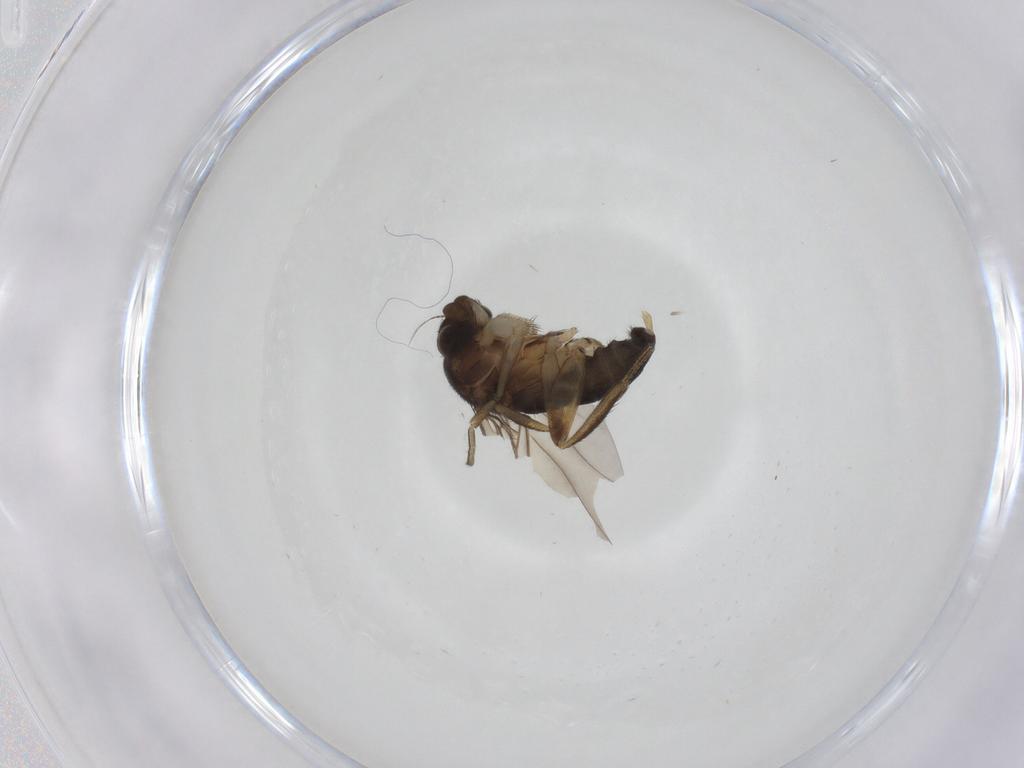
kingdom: Animalia
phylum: Arthropoda
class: Insecta
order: Diptera
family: Phoridae
